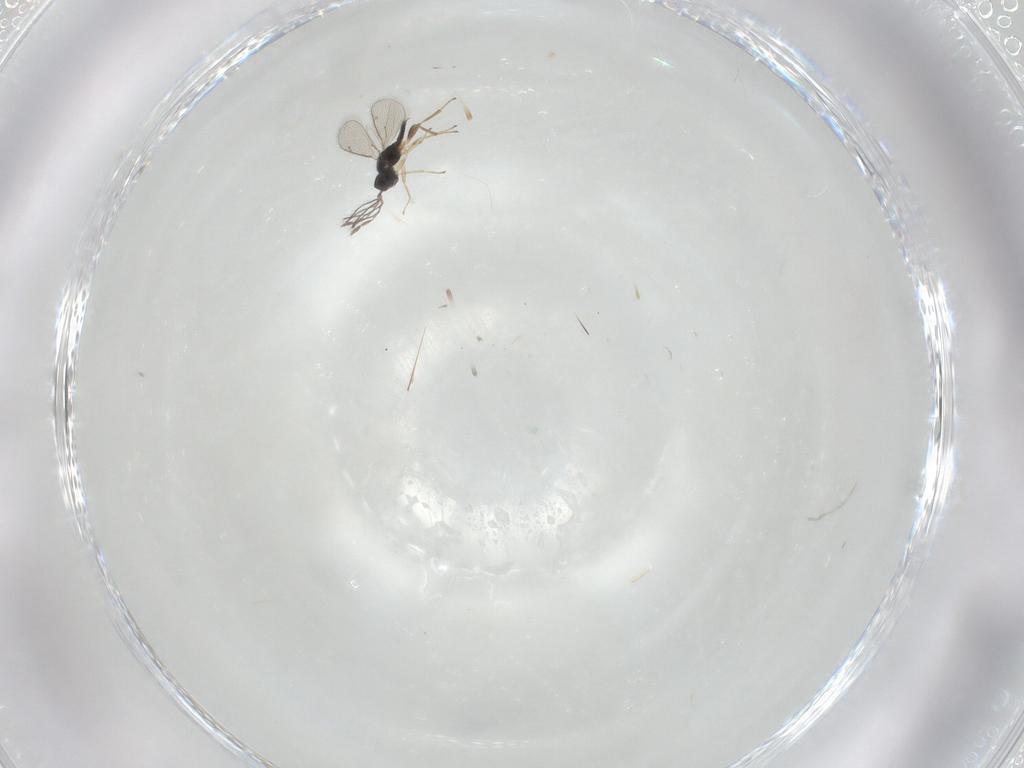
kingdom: Animalia
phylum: Arthropoda
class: Insecta
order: Hymenoptera
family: Eulophidae
